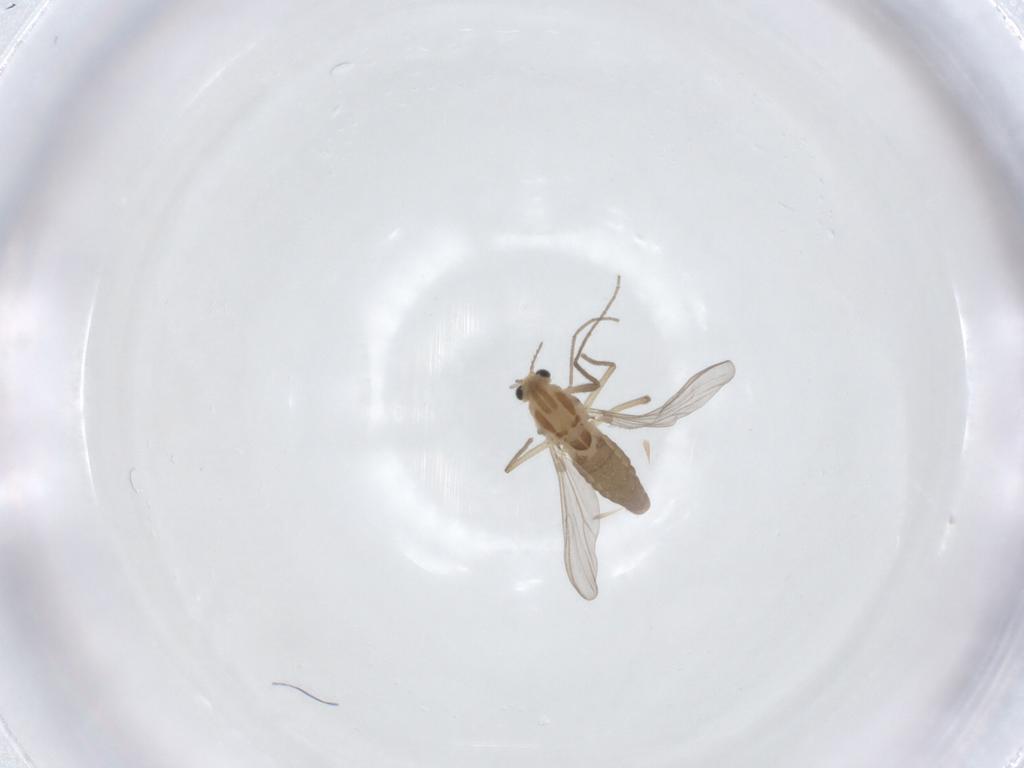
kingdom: Animalia
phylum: Arthropoda
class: Insecta
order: Diptera
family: Chironomidae
